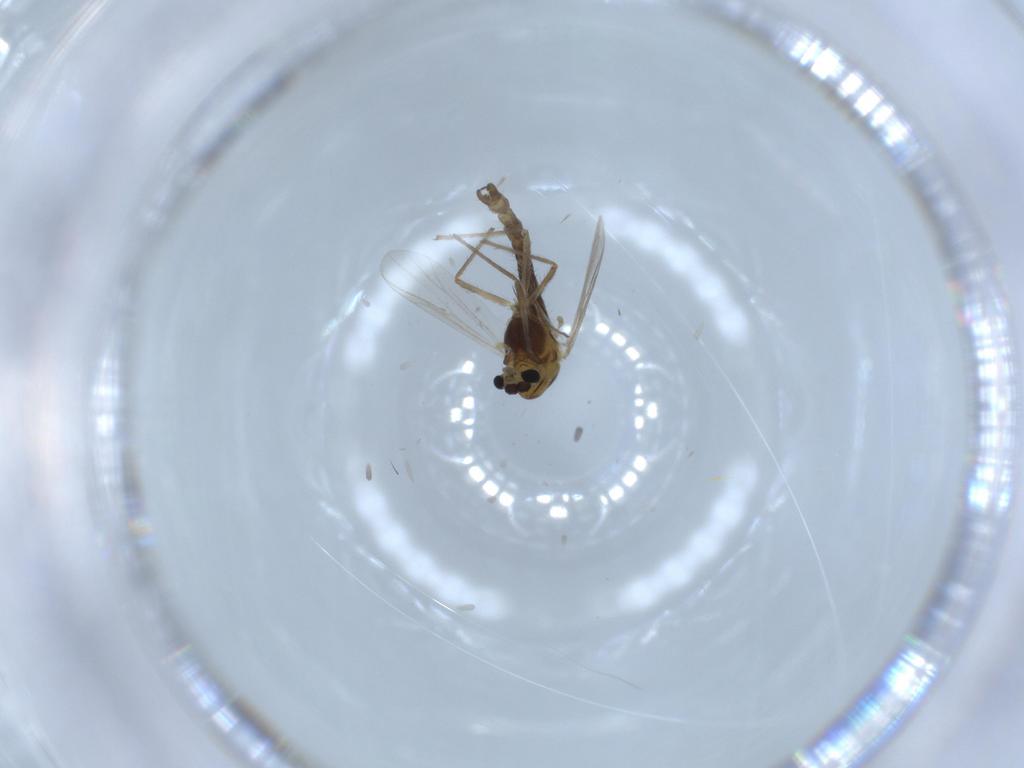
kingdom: Animalia
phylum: Arthropoda
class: Insecta
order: Diptera
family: Chironomidae
